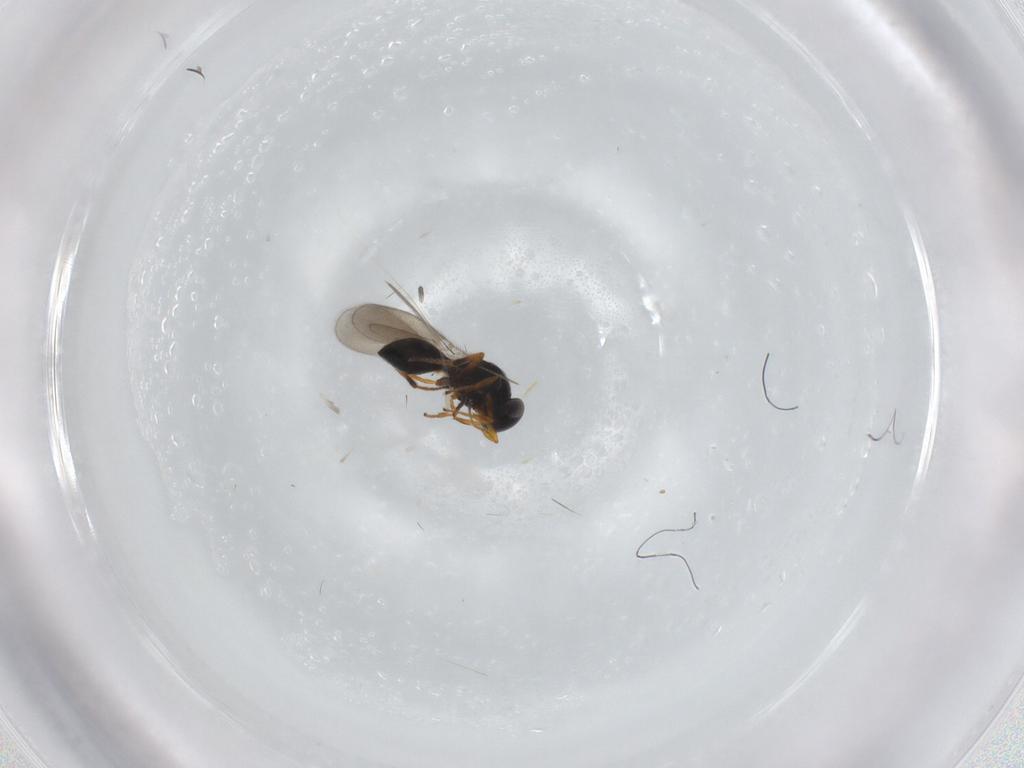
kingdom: Animalia
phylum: Arthropoda
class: Insecta
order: Hymenoptera
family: Platygastridae
